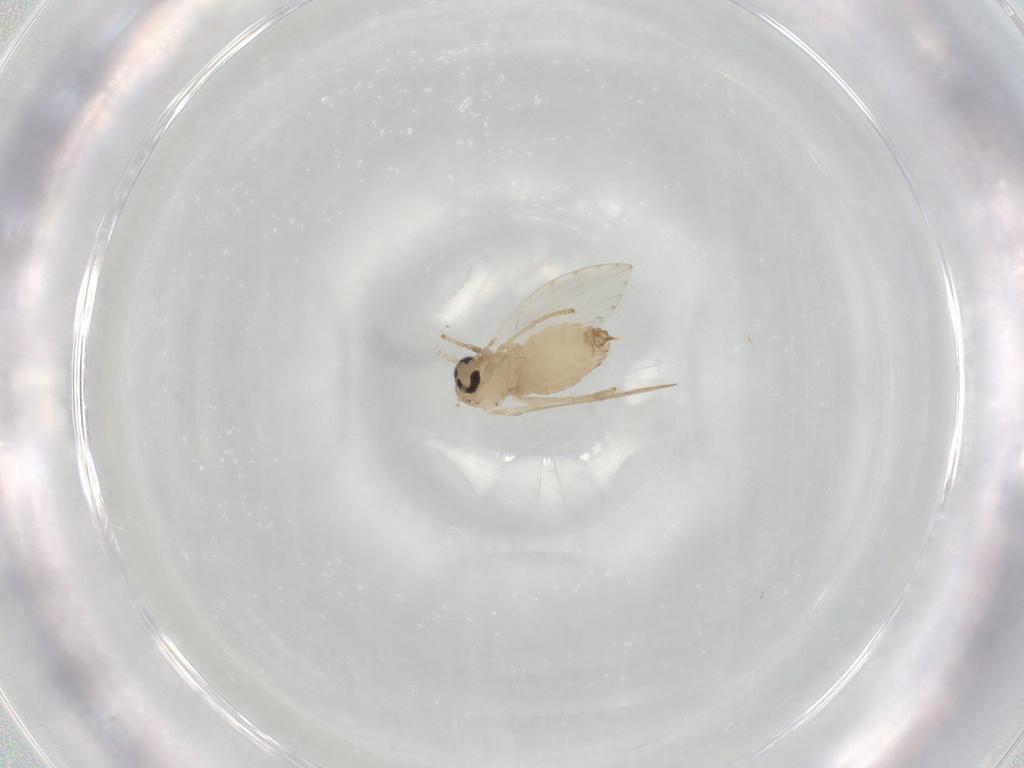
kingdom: Animalia
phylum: Arthropoda
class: Insecta
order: Diptera
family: Psychodidae
